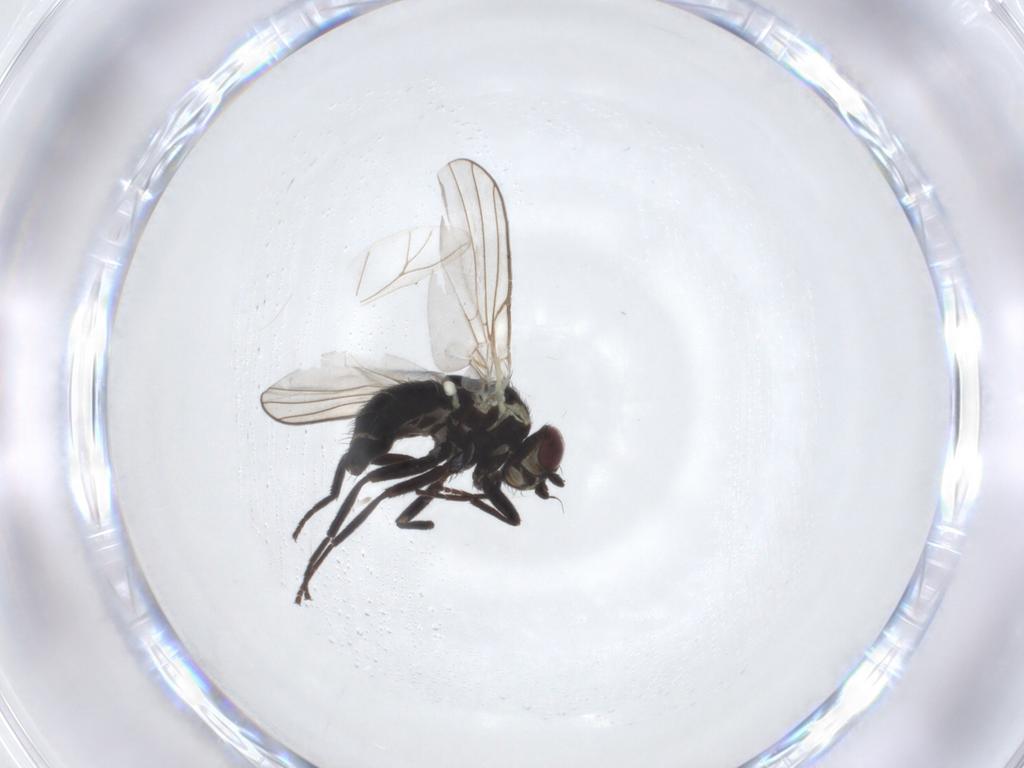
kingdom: Animalia
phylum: Arthropoda
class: Insecta
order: Diptera
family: Agromyzidae
